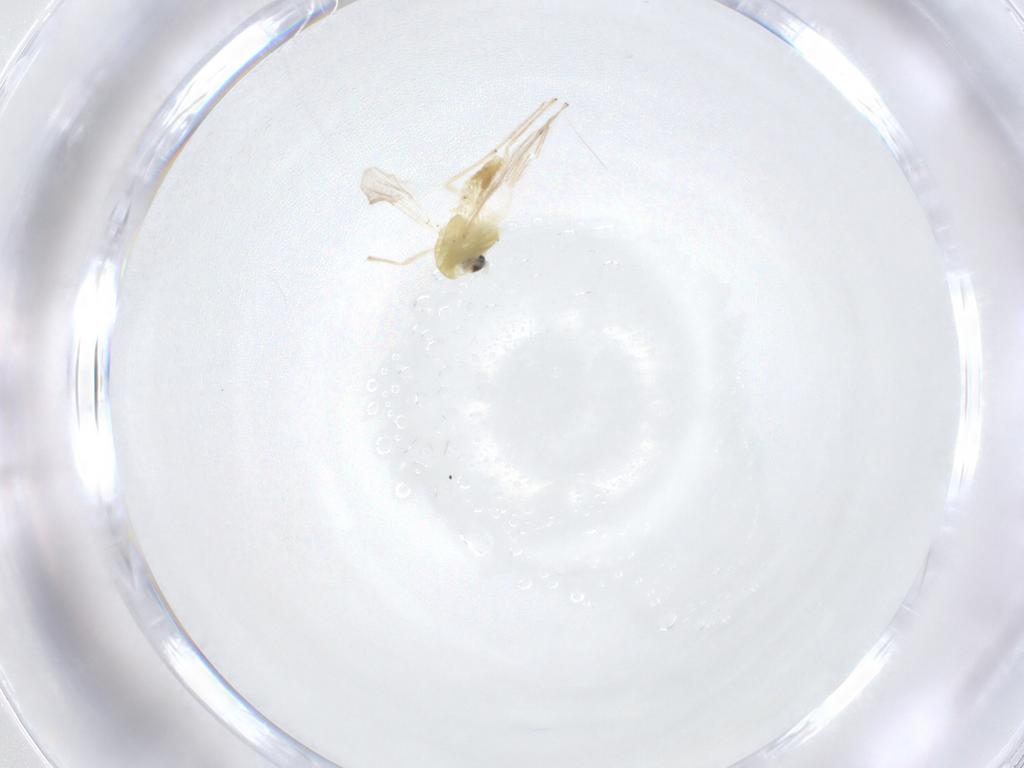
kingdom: Animalia
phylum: Arthropoda
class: Insecta
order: Diptera
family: Chironomidae
